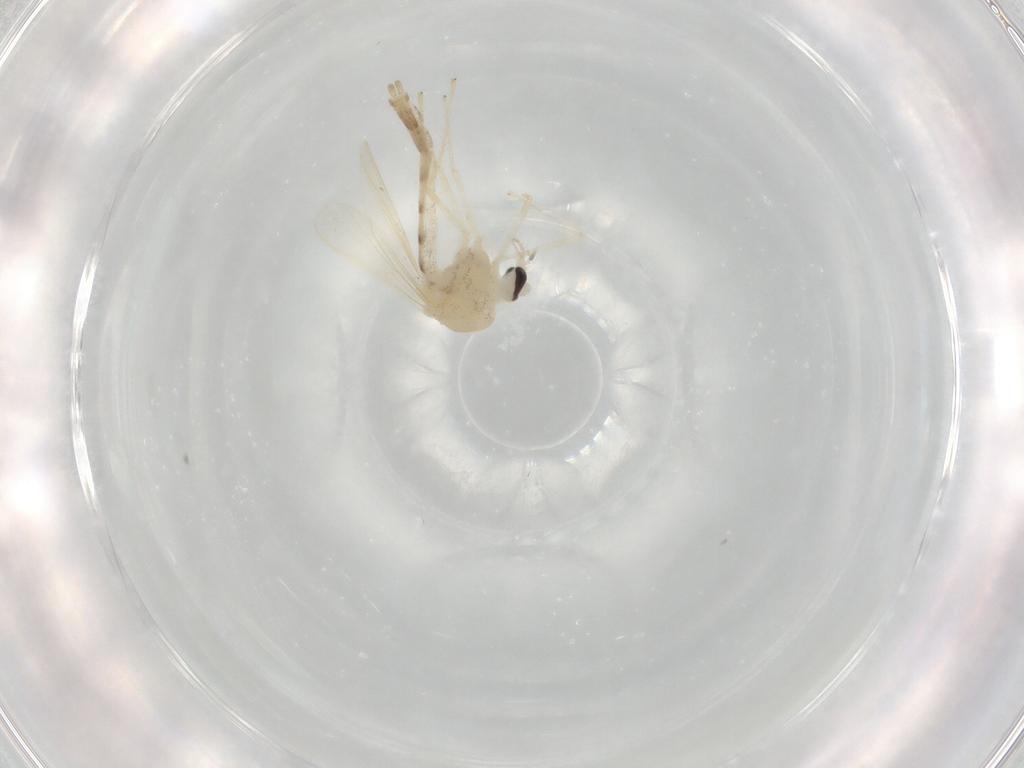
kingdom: Animalia
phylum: Arthropoda
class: Insecta
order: Diptera
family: Chironomidae
